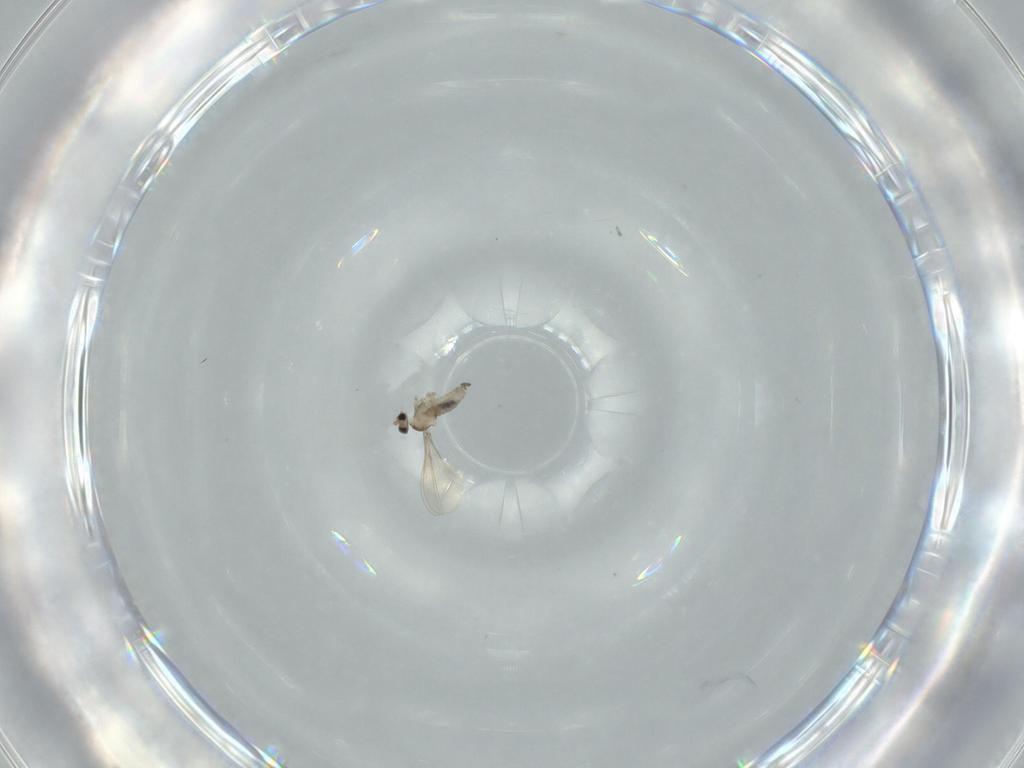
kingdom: Animalia
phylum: Arthropoda
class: Insecta
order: Diptera
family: Cecidomyiidae
